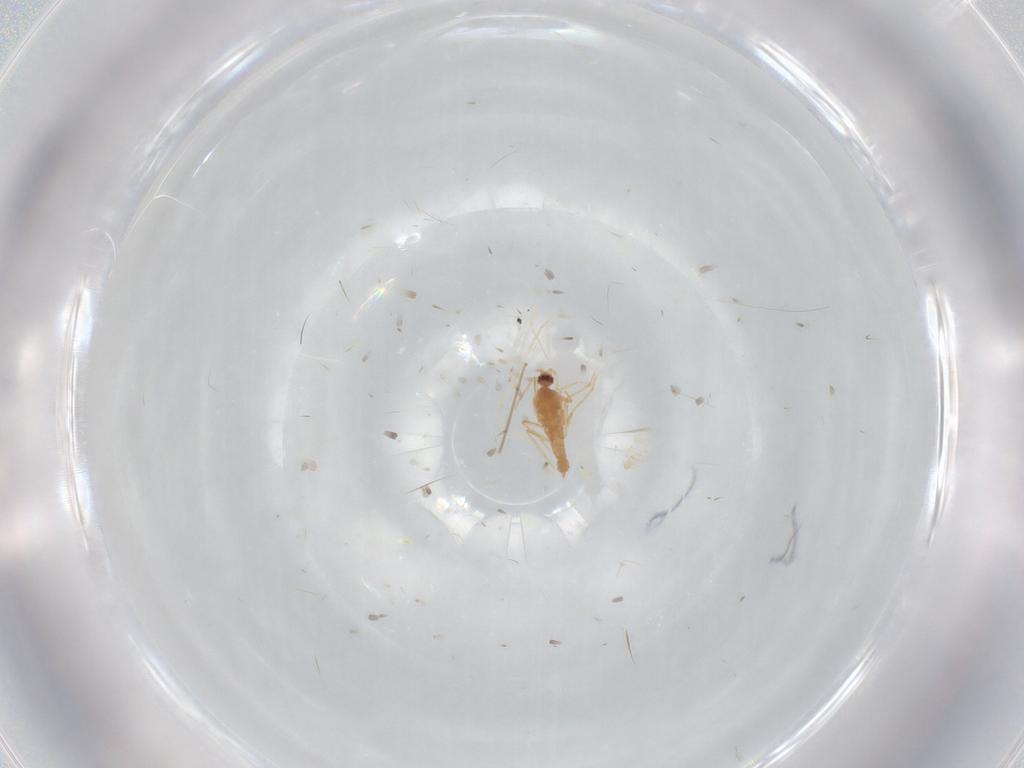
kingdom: Animalia
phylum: Arthropoda
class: Insecta
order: Diptera
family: Chironomidae
